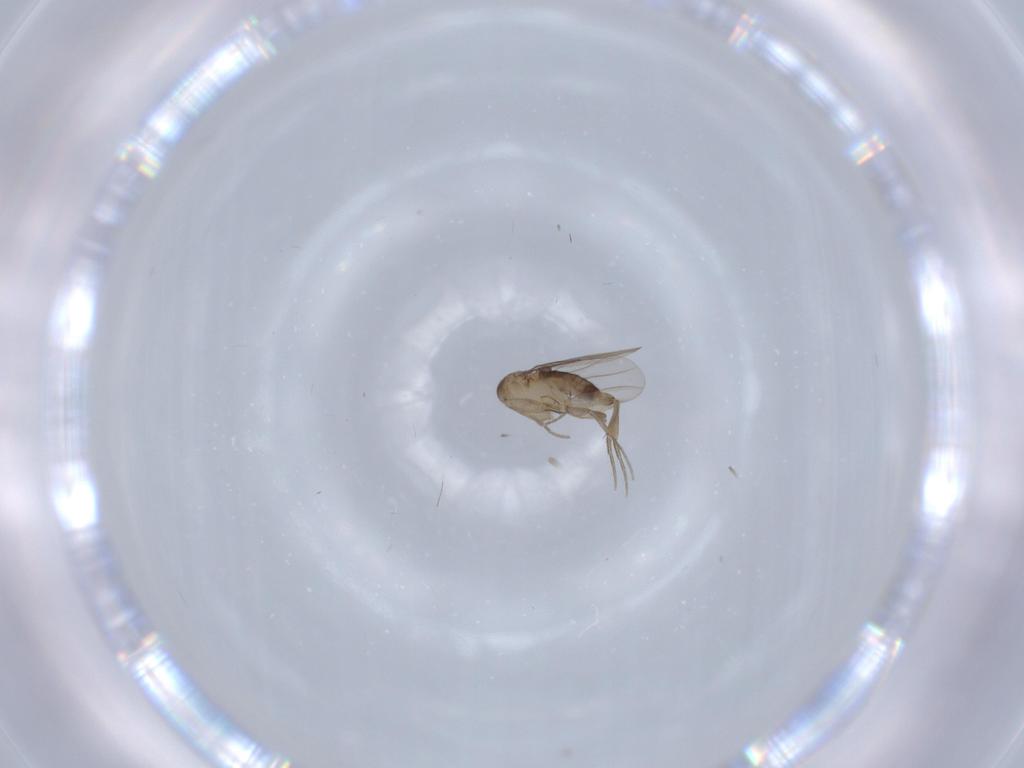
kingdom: Animalia
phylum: Arthropoda
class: Insecta
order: Diptera
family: Phoridae
